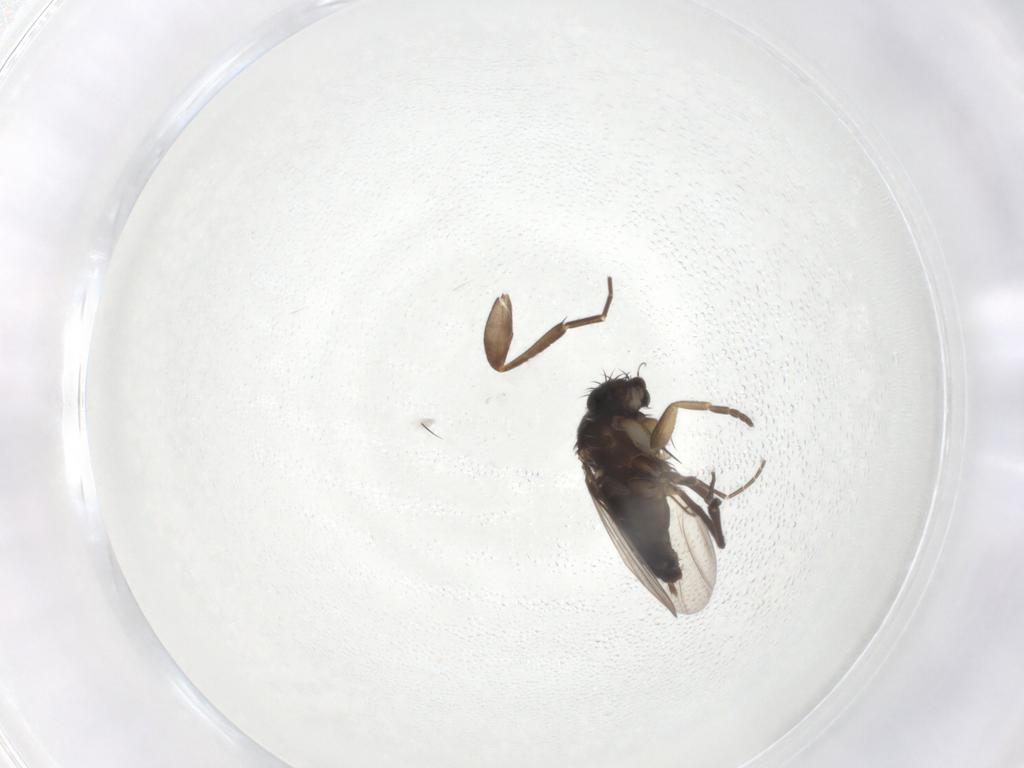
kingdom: Animalia
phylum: Arthropoda
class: Insecta
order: Diptera
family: Phoridae
